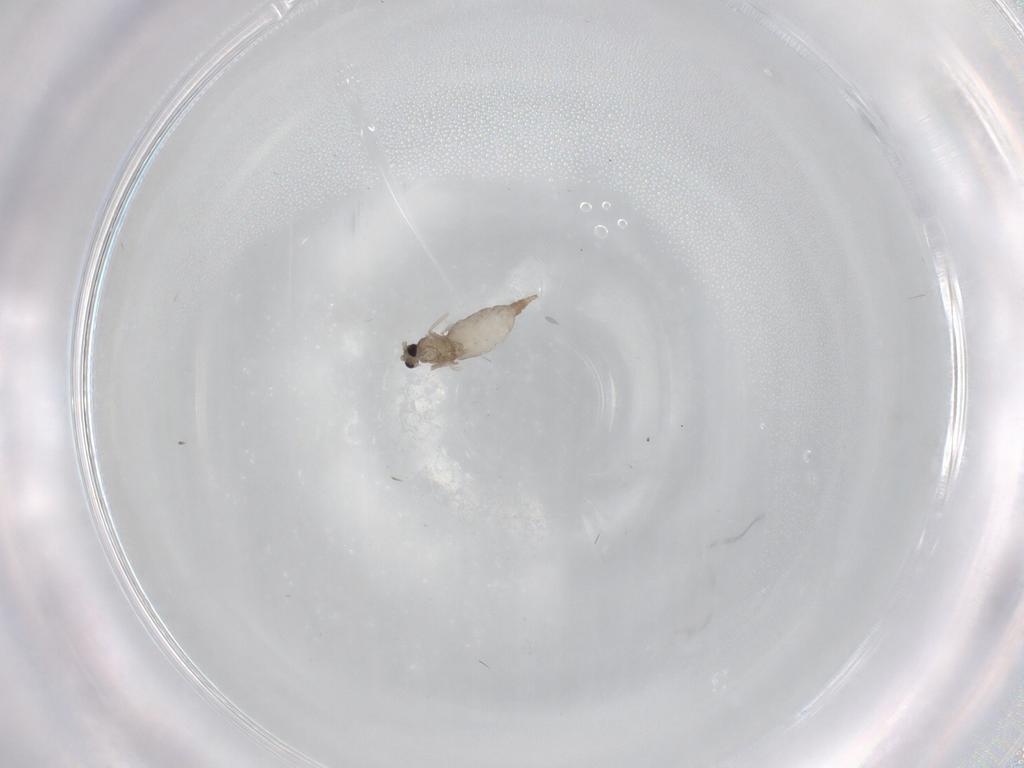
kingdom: Animalia
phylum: Arthropoda
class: Insecta
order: Diptera
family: Cecidomyiidae
